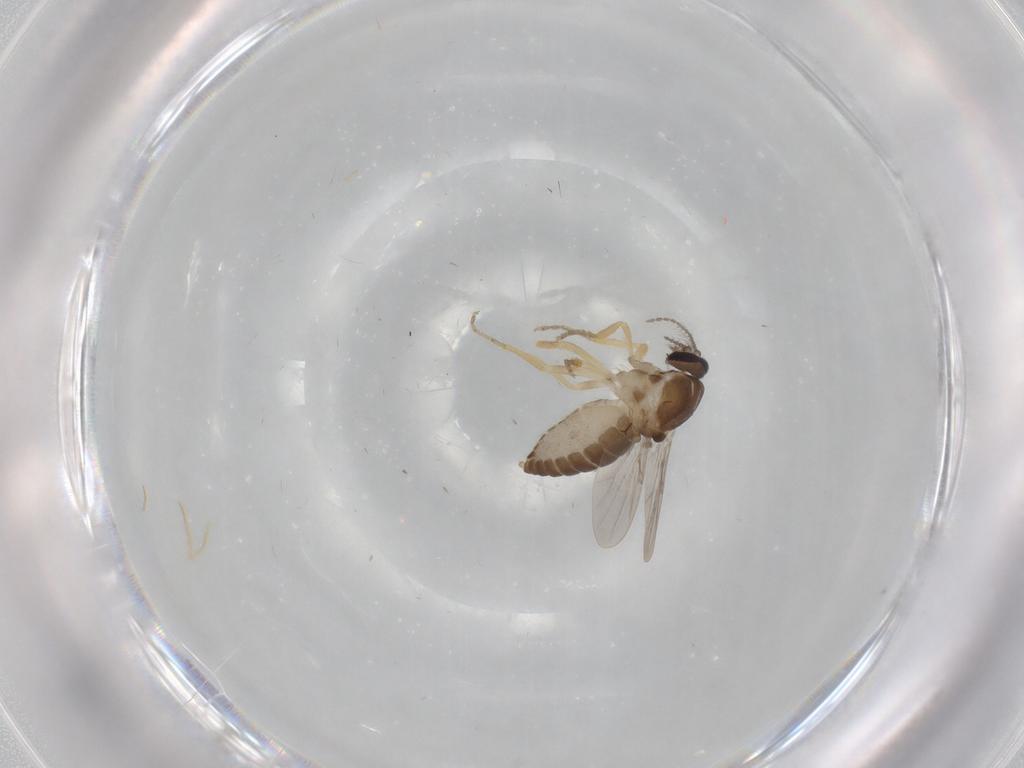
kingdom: Animalia
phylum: Arthropoda
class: Insecta
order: Diptera
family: Ceratopogonidae
